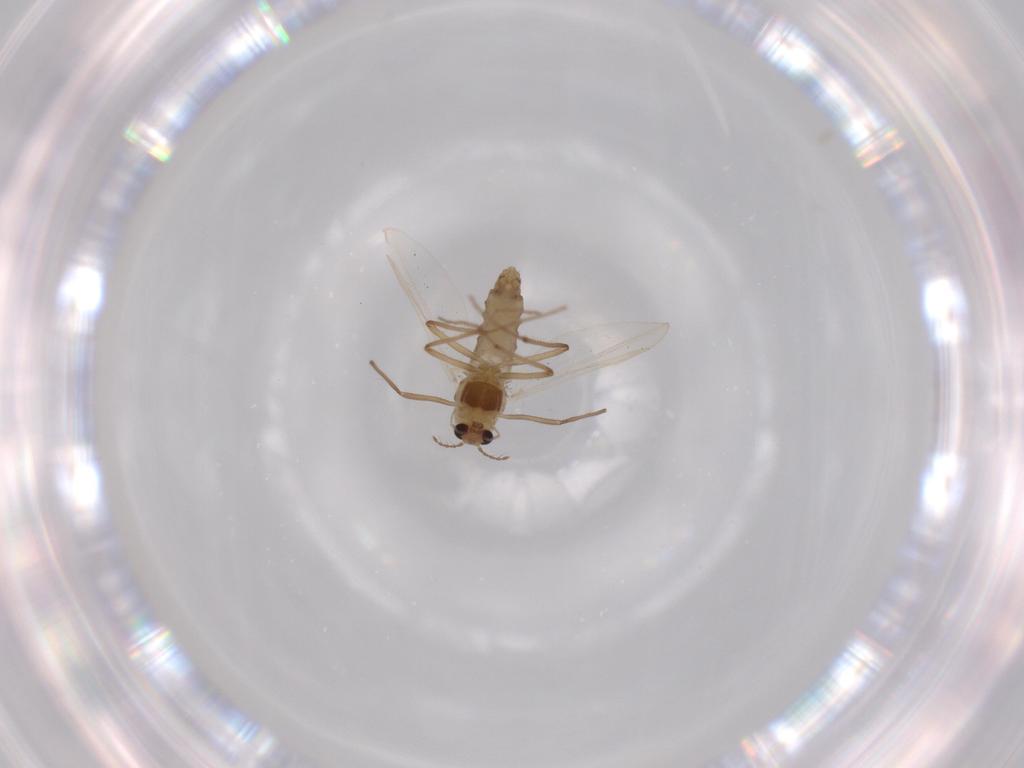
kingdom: Animalia
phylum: Arthropoda
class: Insecta
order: Diptera
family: Chironomidae
